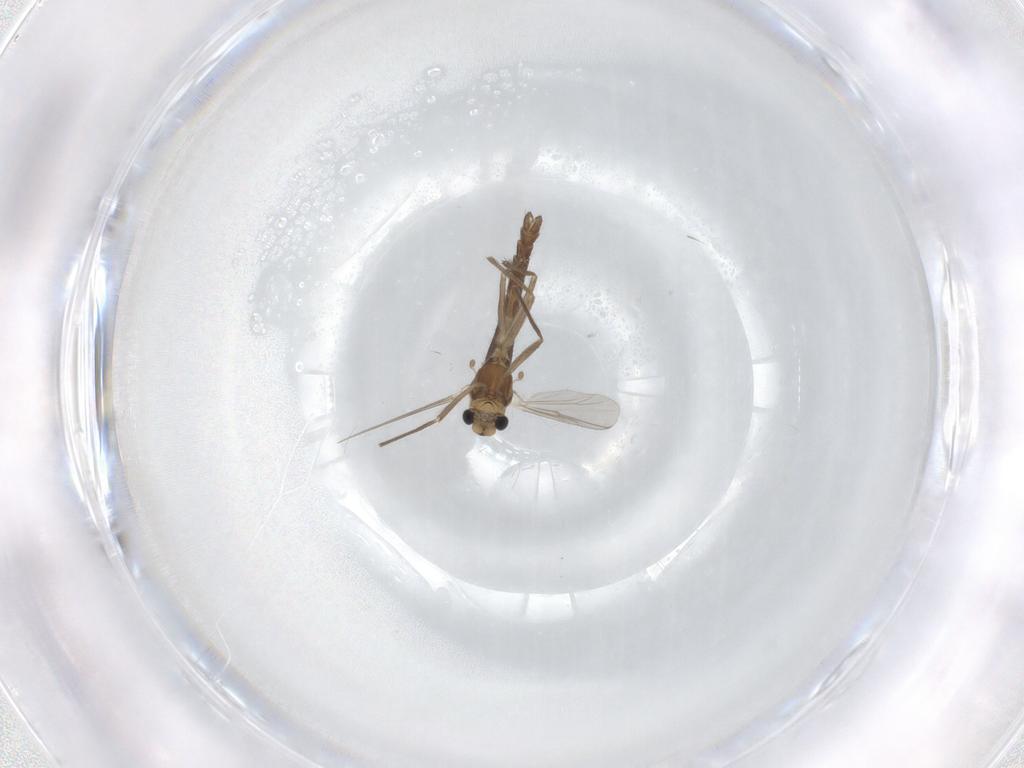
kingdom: Animalia
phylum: Arthropoda
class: Insecta
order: Diptera
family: Chironomidae
